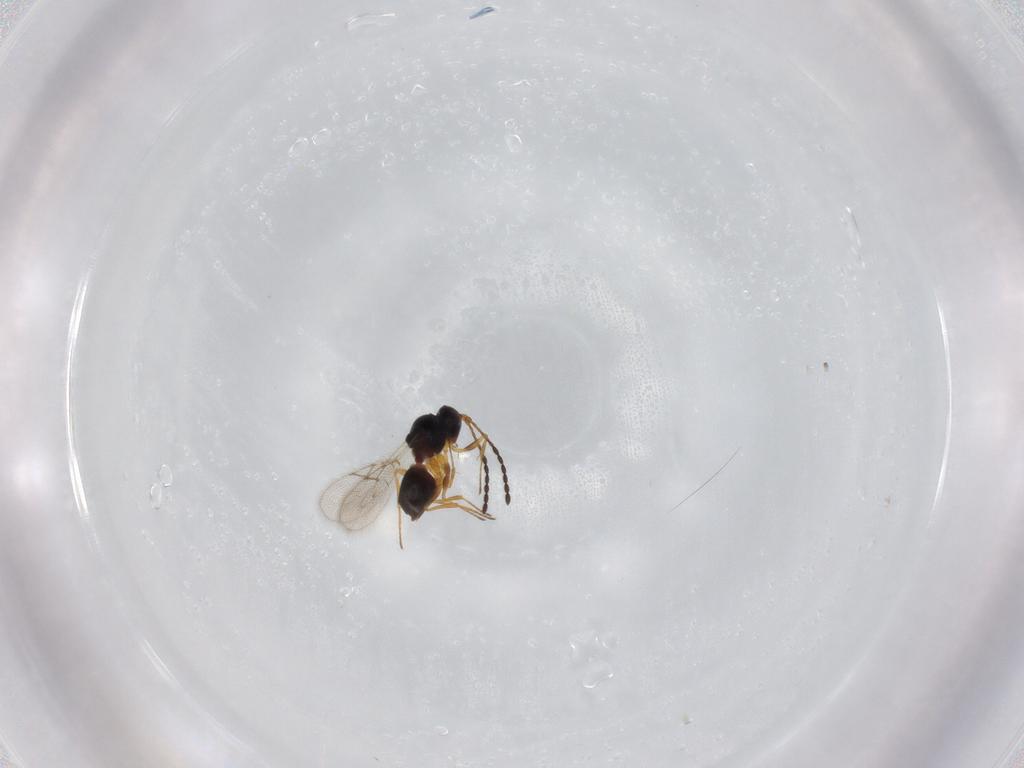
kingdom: Animalia
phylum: Arthropoda
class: Insecta
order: Hymenoptera
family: Figitidae
